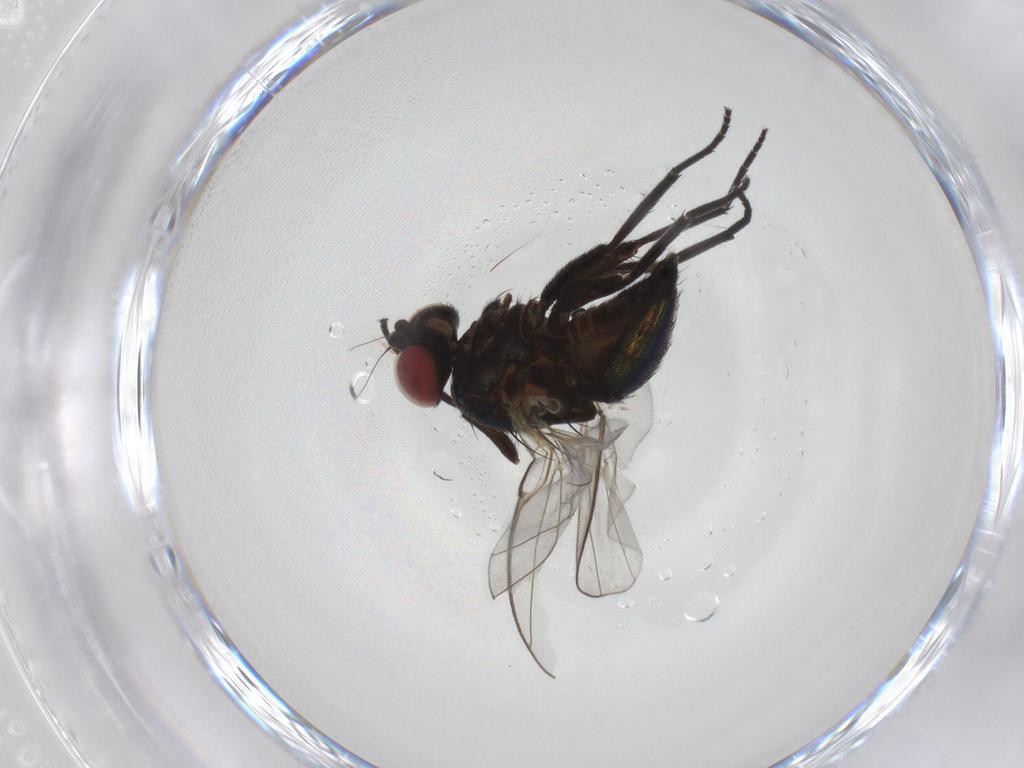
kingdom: Animalia
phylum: Arthropoda
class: Insecta
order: Diptera
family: Agromyzidae
